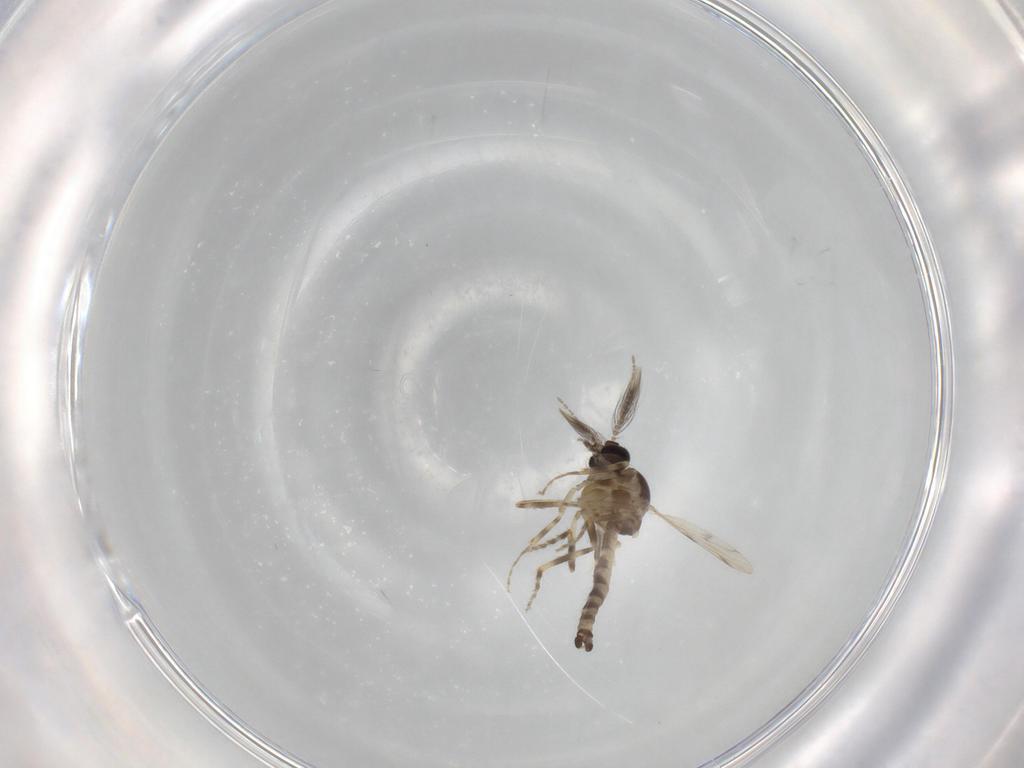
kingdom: Animalia
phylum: Arthropoda
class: Insecta
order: Diptera
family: Ceratopogonidae
